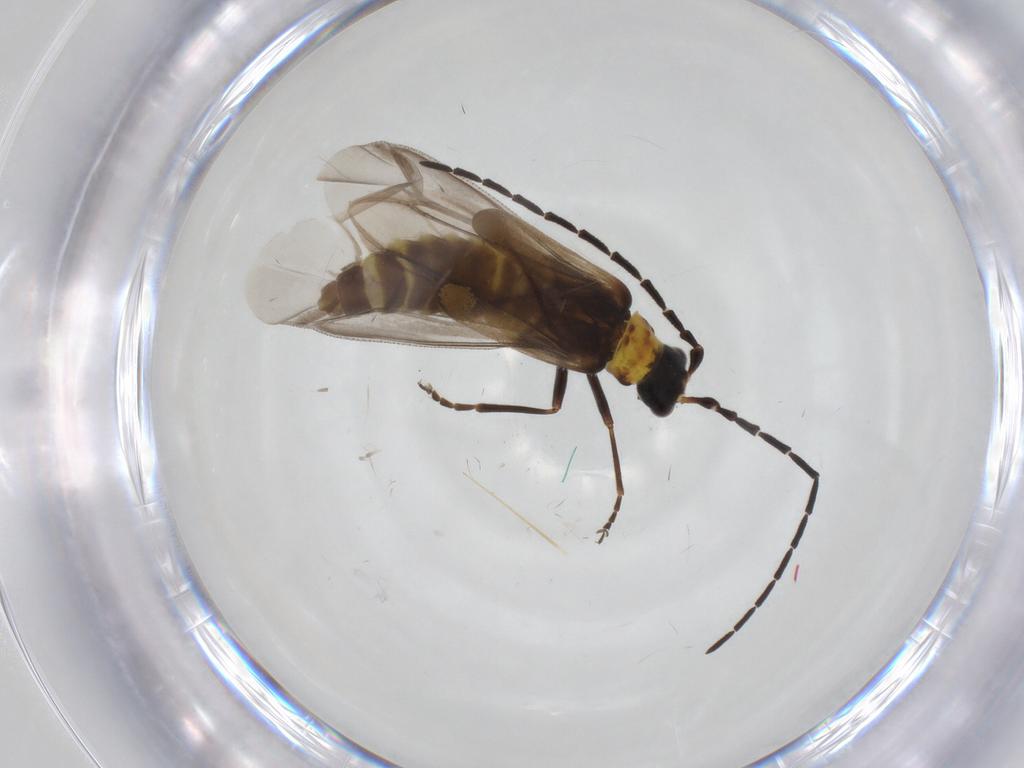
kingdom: Animalia
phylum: Arthropoda
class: Insecta
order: Coleoptera
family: Cantharidae
